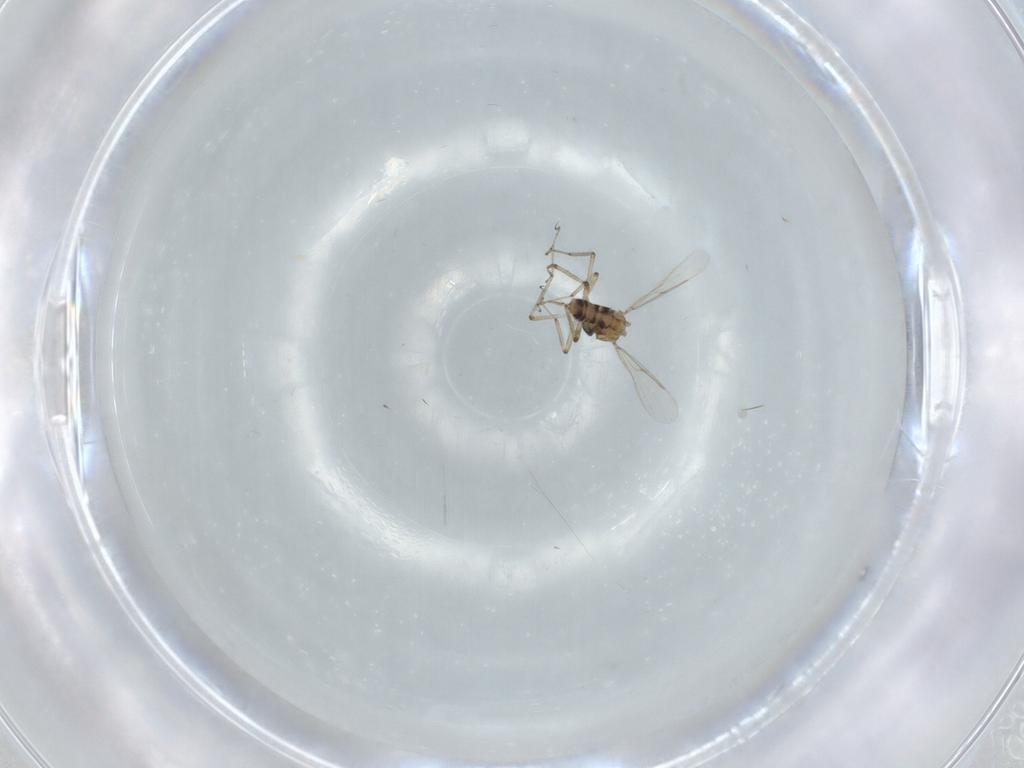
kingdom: Animalia
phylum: Arthropoda
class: Insecta
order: Diptera
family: Ceratopogonidae
